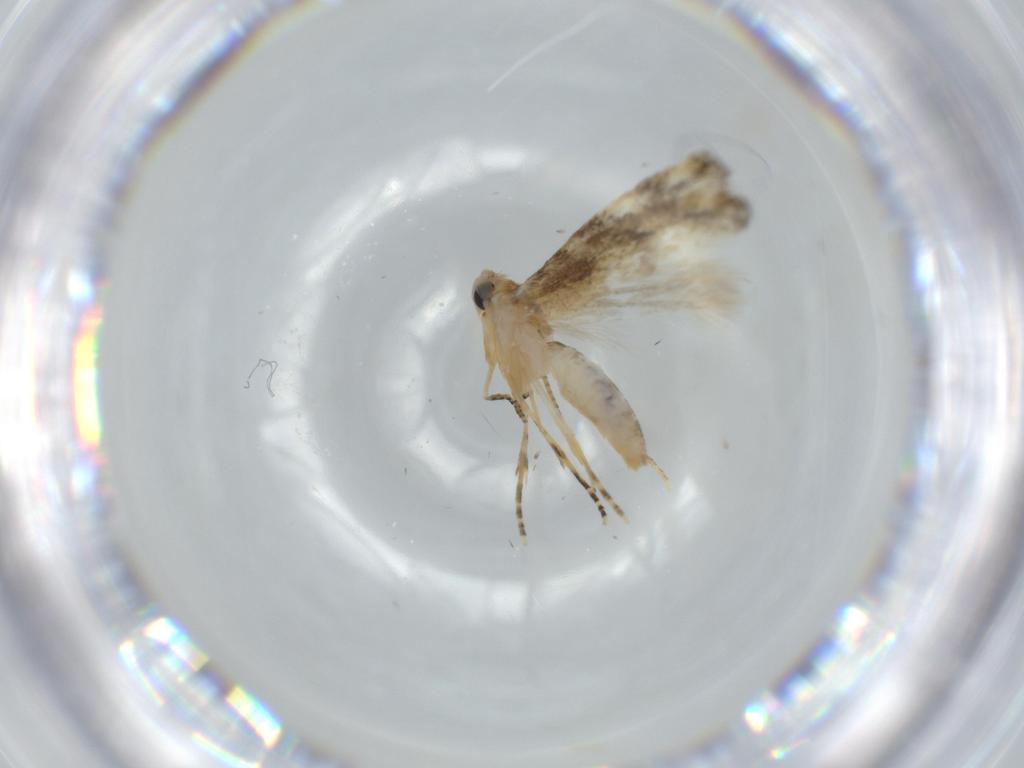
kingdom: Animalia
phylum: Arthropoda
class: Insecta
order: Lepidoptera
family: Bucculatricidae
